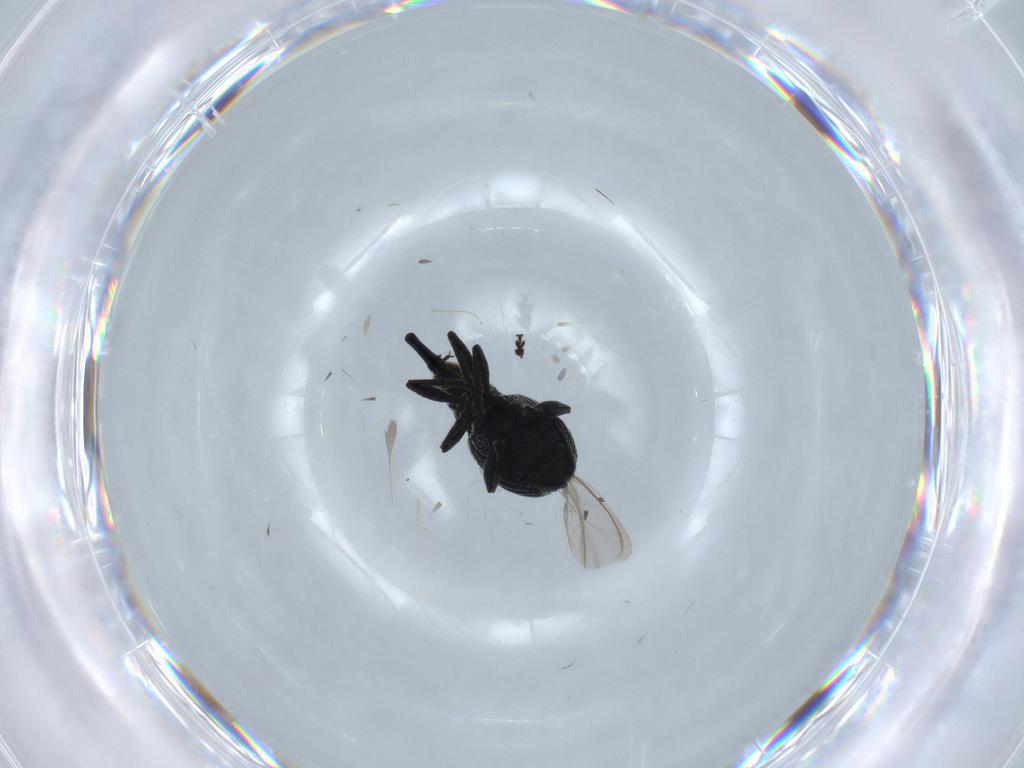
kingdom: Animalia
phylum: Arthropoda
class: Insecta
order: Coleoptera
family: Brentidae
